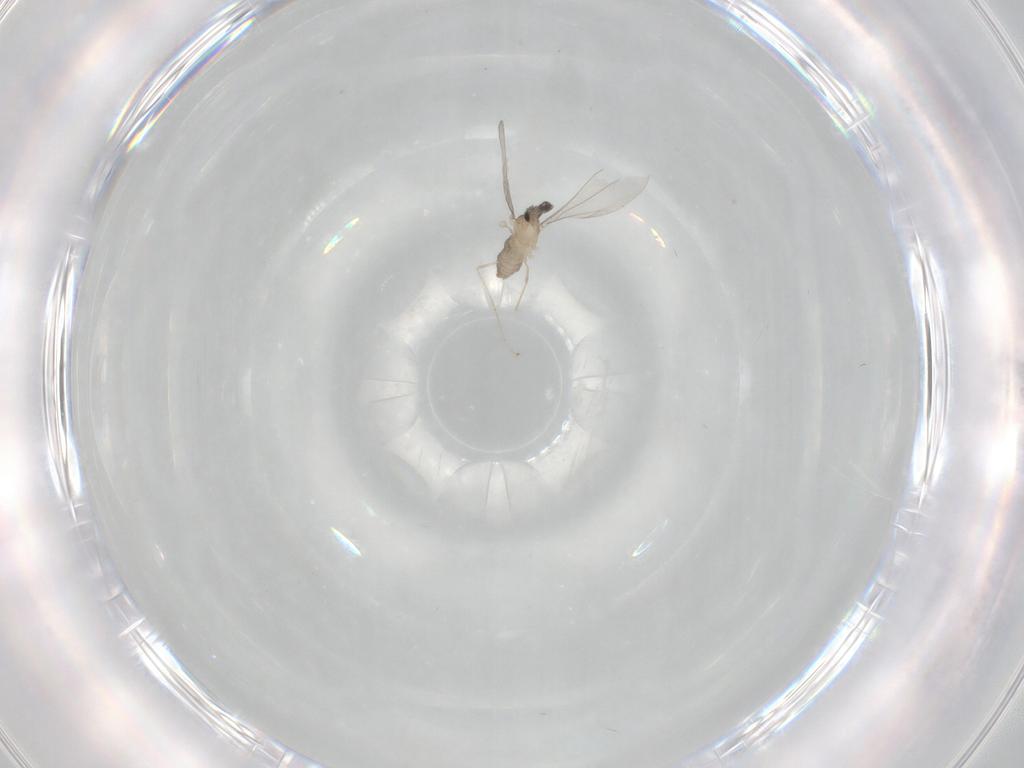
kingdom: Animalia
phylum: Arthropoda
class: Insecta
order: Diptera
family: Cecidomyiidae
